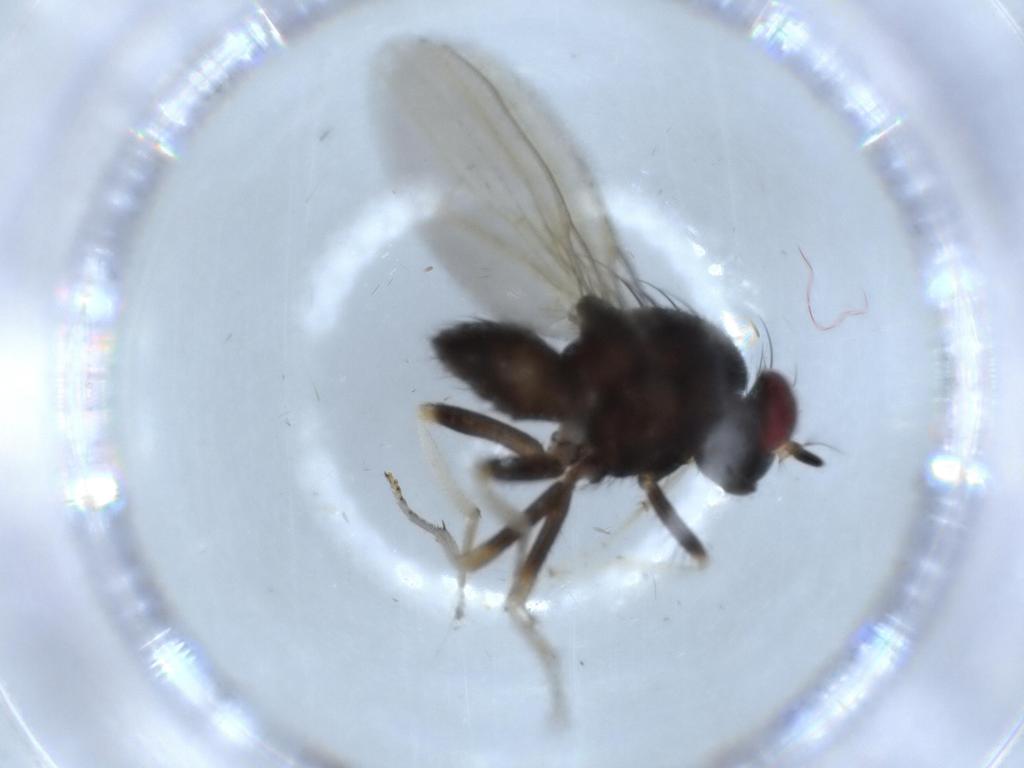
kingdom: Animalia
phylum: Arthropoda
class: Insecta
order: Diptera
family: Lauxaniidae
